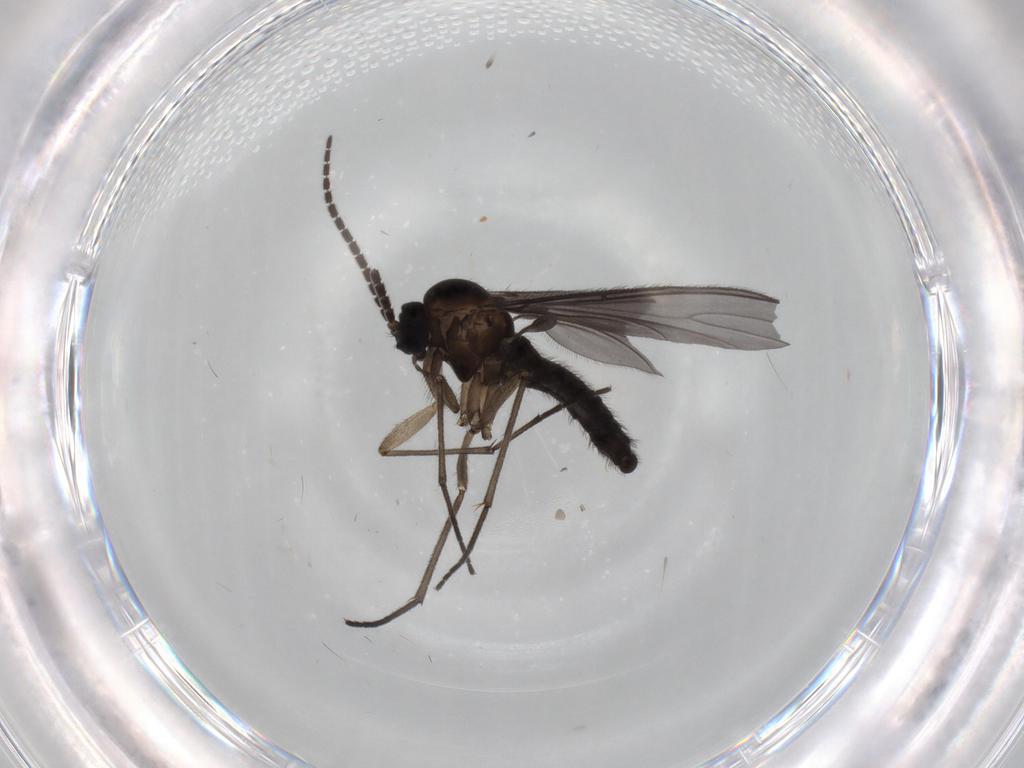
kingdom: Animalia
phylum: Arthropoda
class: Insecta
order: Diptera
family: Sciaridae
